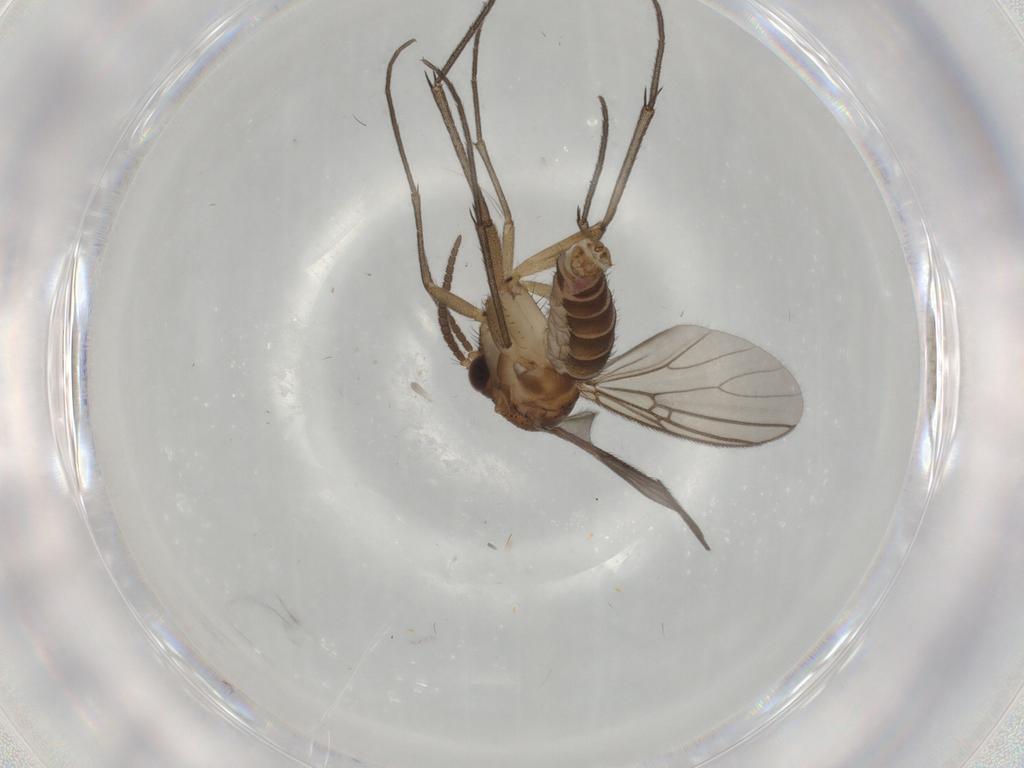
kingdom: Animalia
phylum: Arthropoda
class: Insecta
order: Diptera
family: Phoridae
